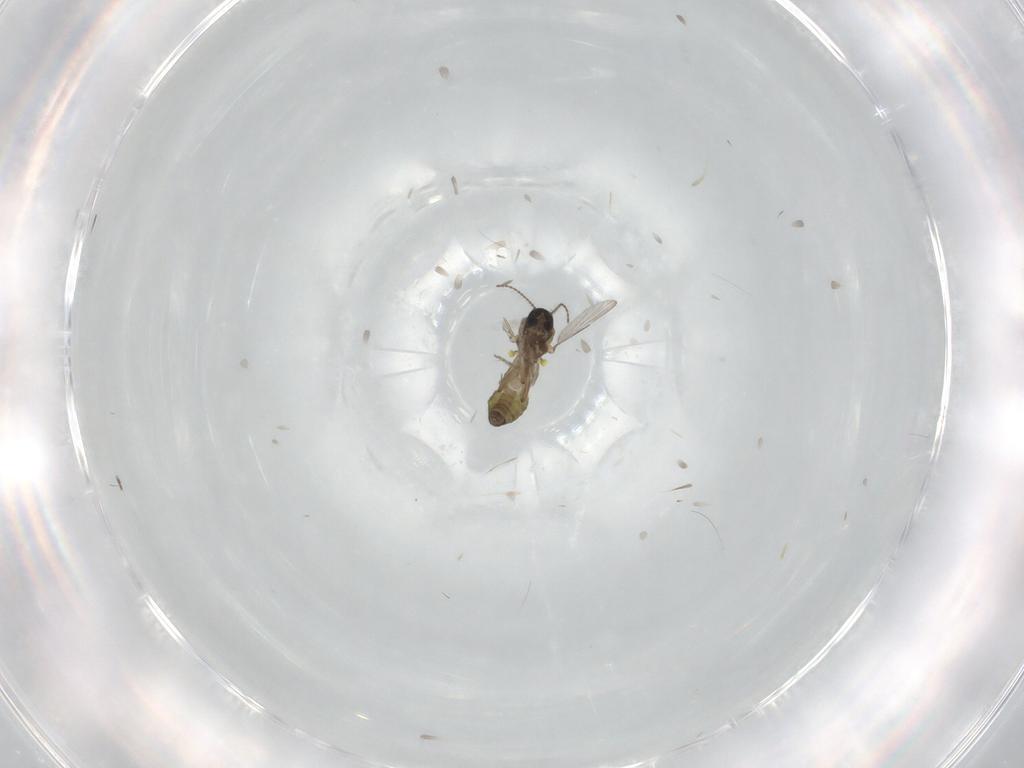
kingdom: Animalia
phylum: Arthropoda
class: Insecta
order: Diptera
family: Ceratopogonidae
